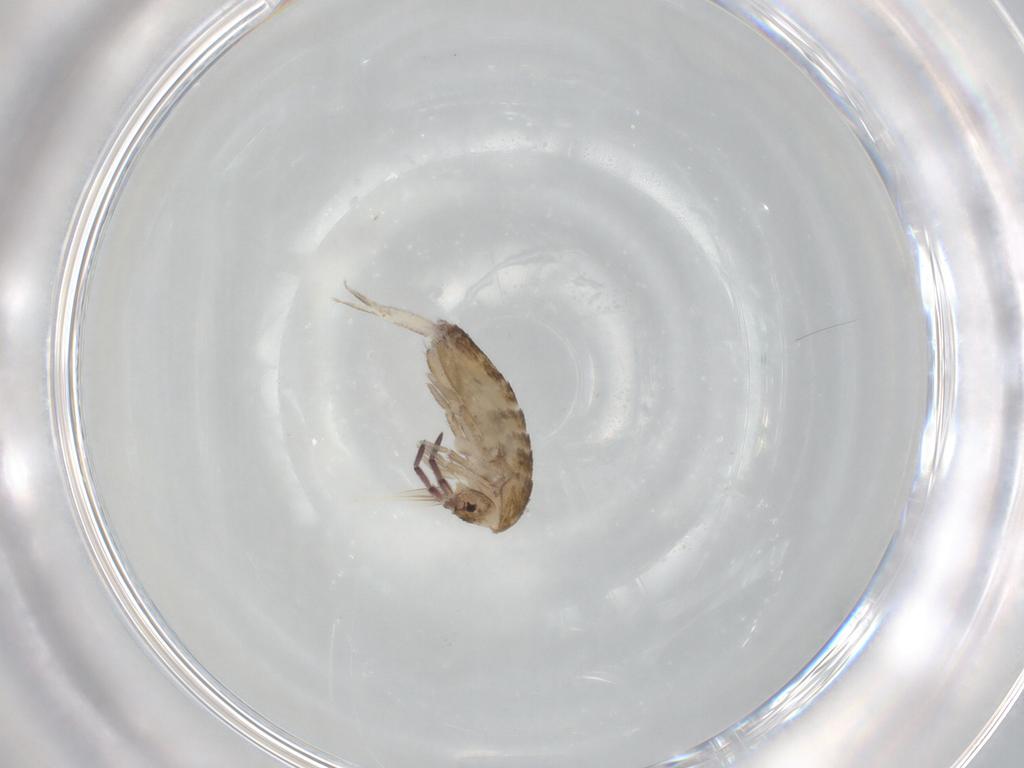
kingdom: Animalia
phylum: Arthropoda
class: Collembola
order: Entomobryomorpha
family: Entomobryidae
